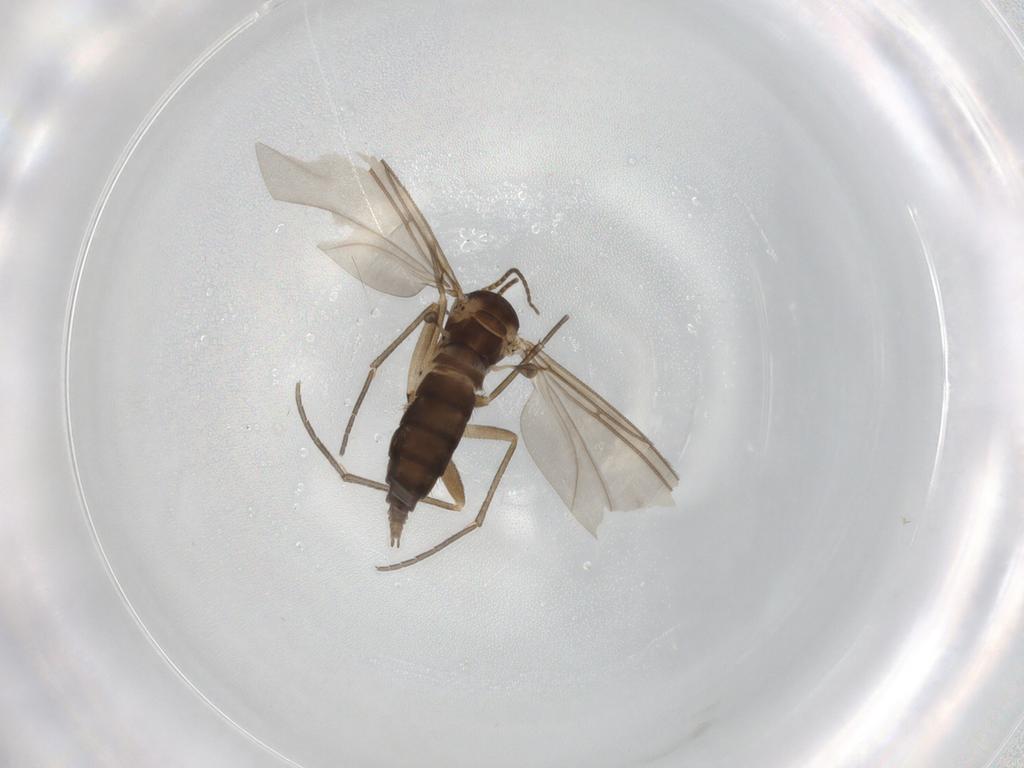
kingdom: Animalia
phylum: Arthropoda
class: Insecta
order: Diptera
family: Sciaridae
